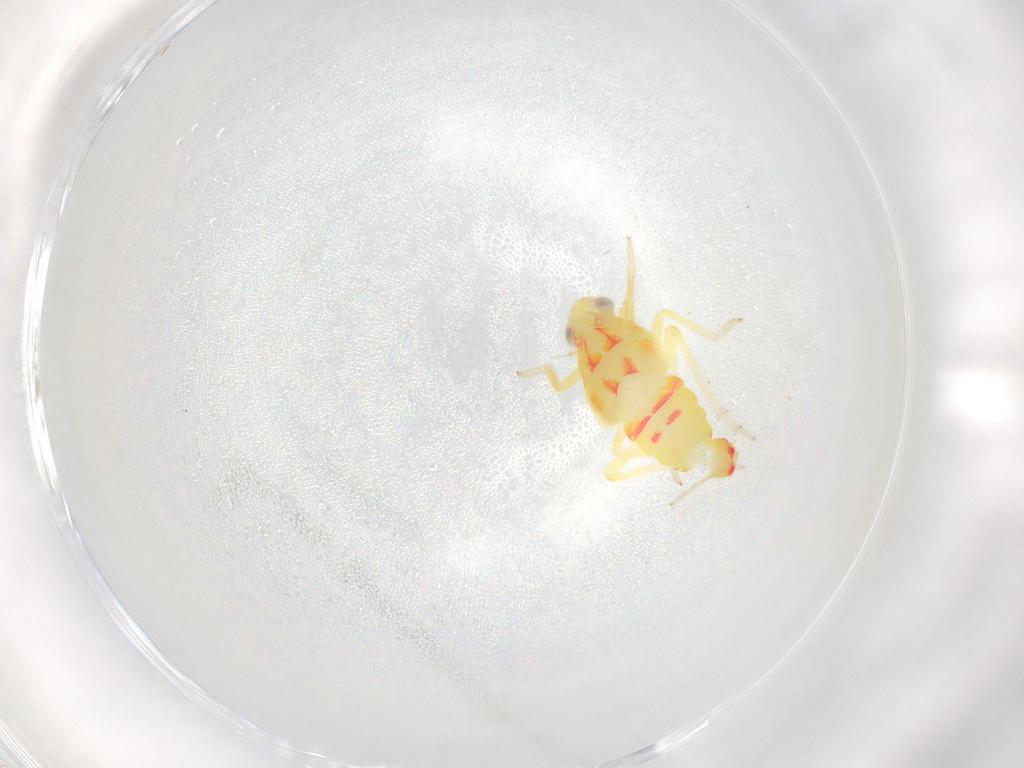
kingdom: Animalia
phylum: Arthropoda
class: Insecta
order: Hemiptera
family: Tropiduchidae
